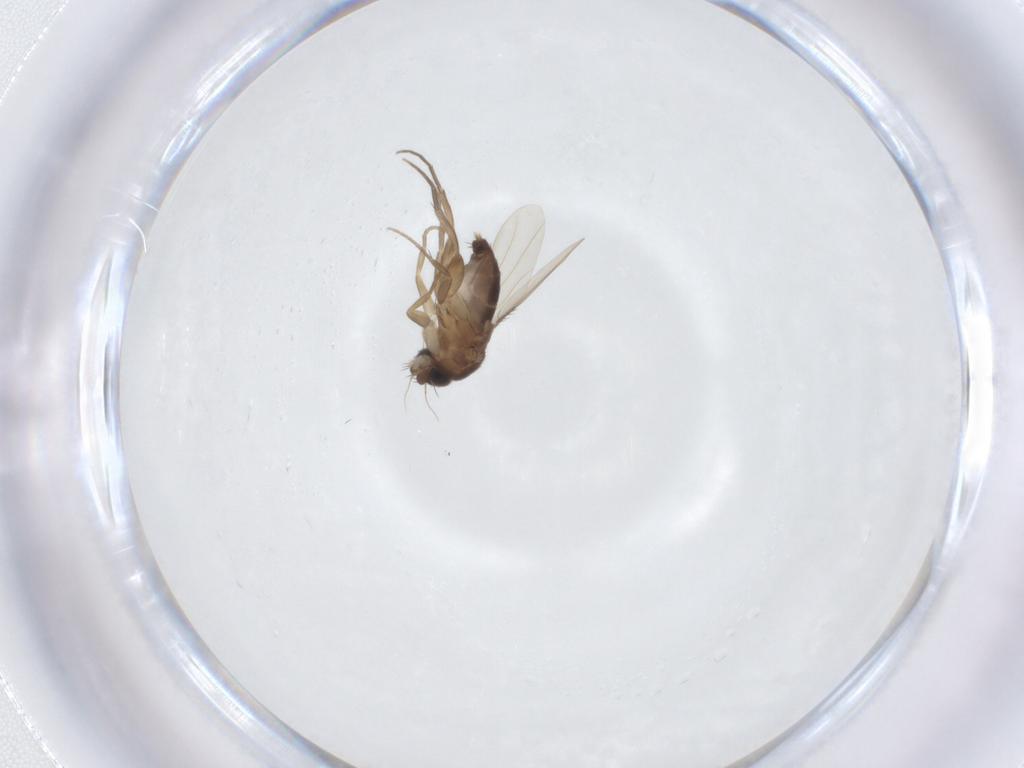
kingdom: Animalia
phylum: Arthropoda
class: Insecta
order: Diptera
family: Phoridae
